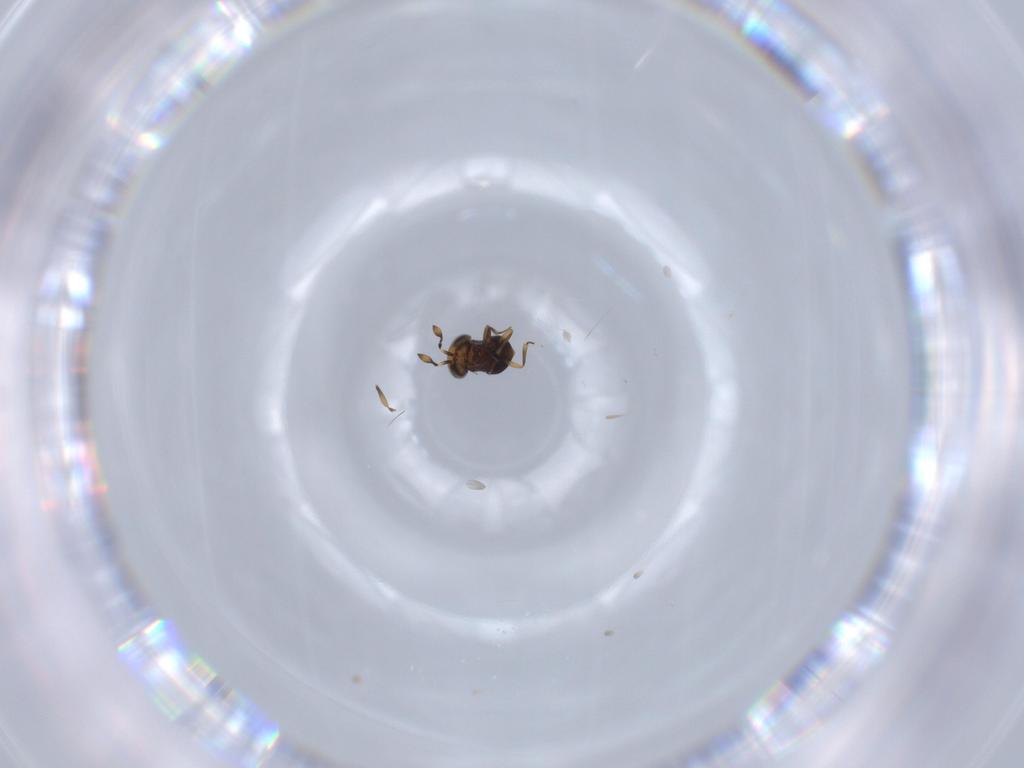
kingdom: Animalia
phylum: Arthropoda
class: Insecta
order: Hymenoptera
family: Scelionidae
